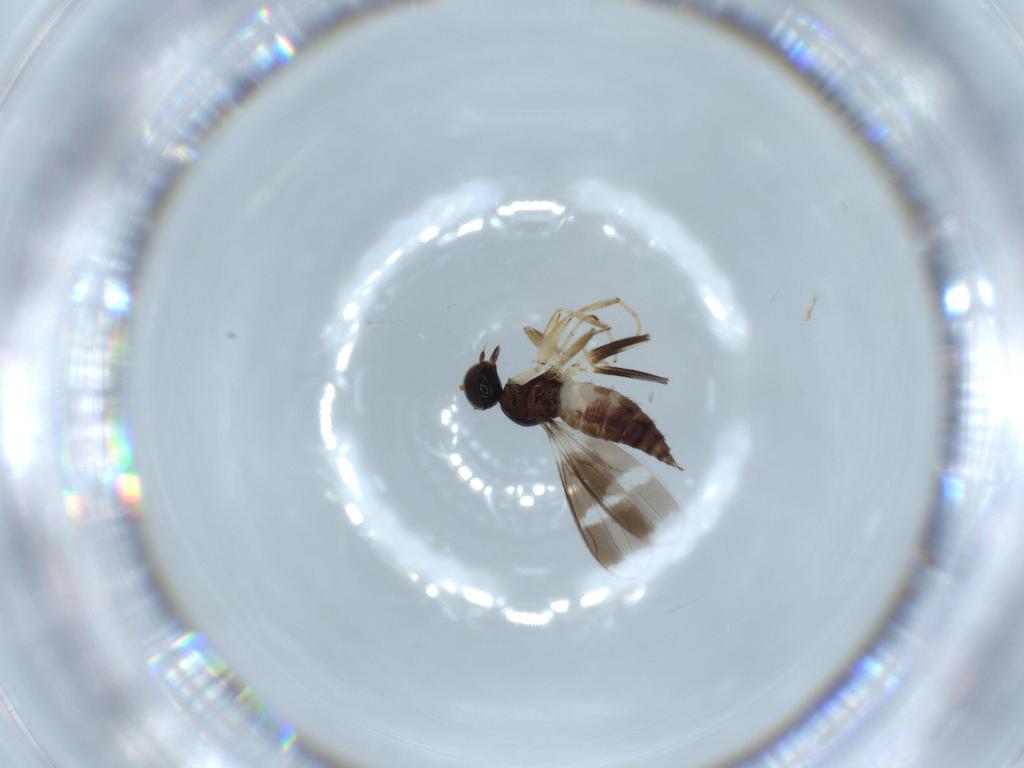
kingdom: Animalia
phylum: Arthropoda
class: Insecta
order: Diptera
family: Hybotidae
